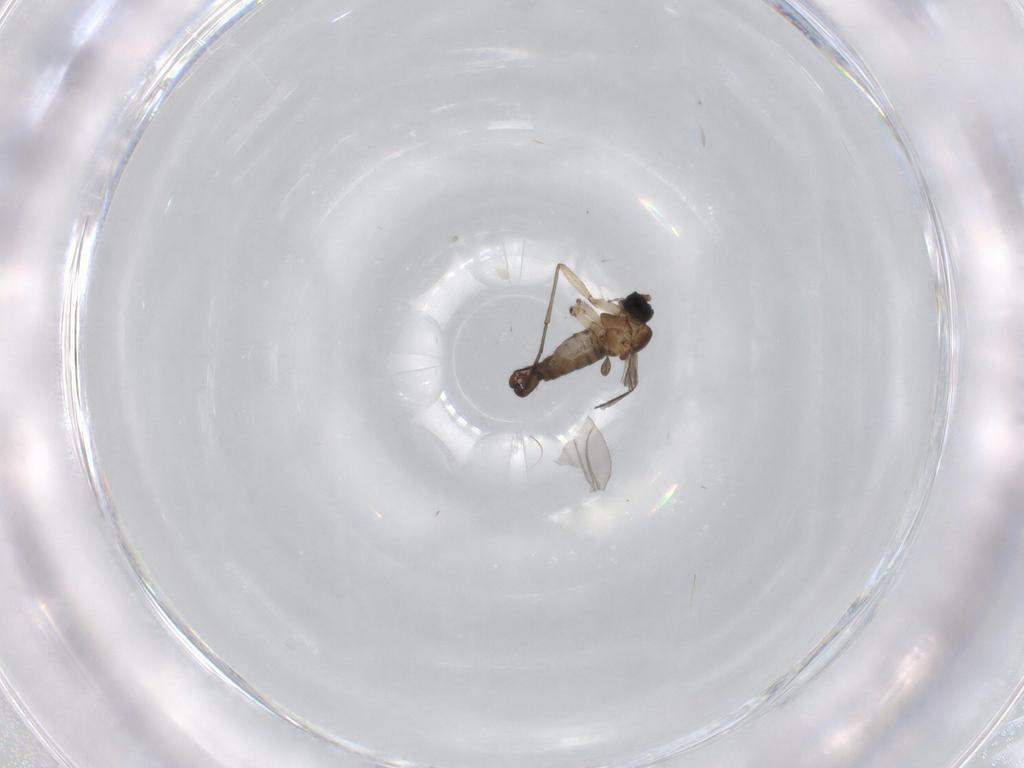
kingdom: Animalia
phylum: Arthropoda
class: Insecta
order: Diptera
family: Sciaridae
